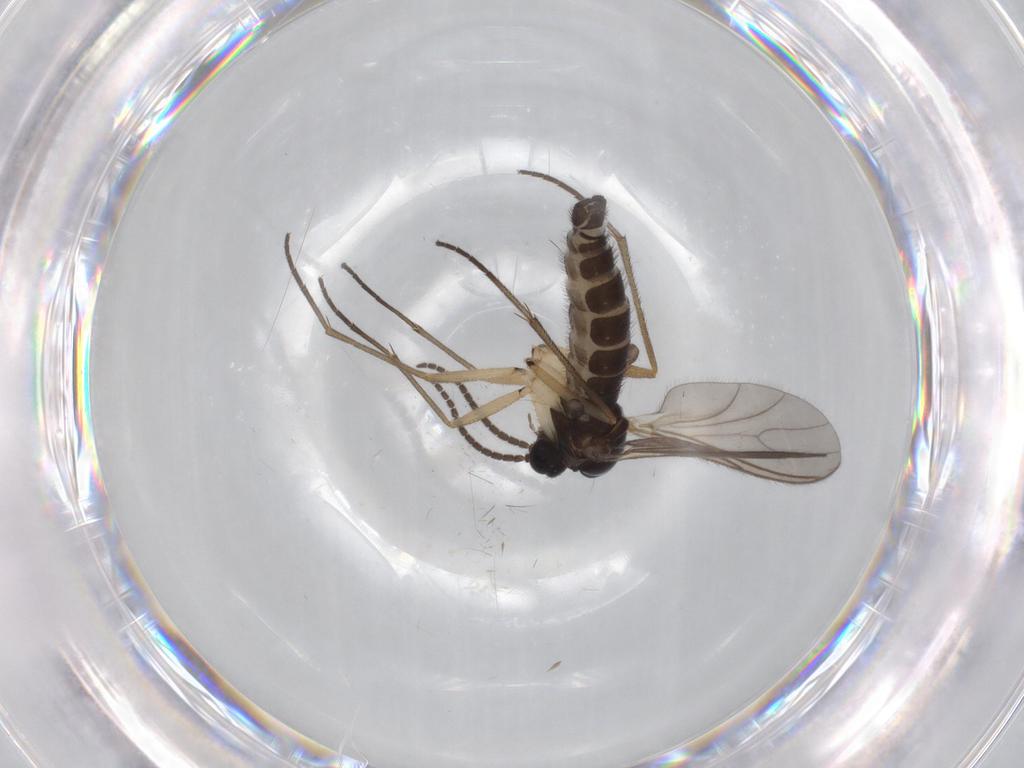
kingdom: Animalia
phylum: Arthropoda
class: Insecta
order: Diptera
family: Sciaridae
